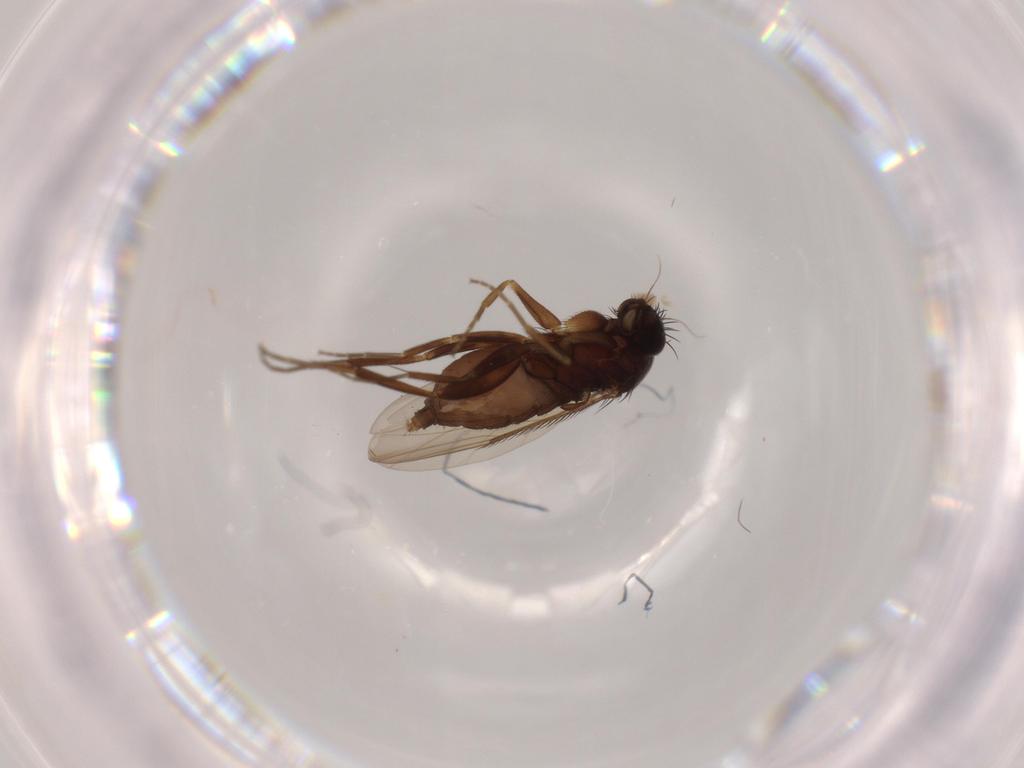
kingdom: Animalia
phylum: Arthropoda
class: Insecta
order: Diptera
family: Phoridae
